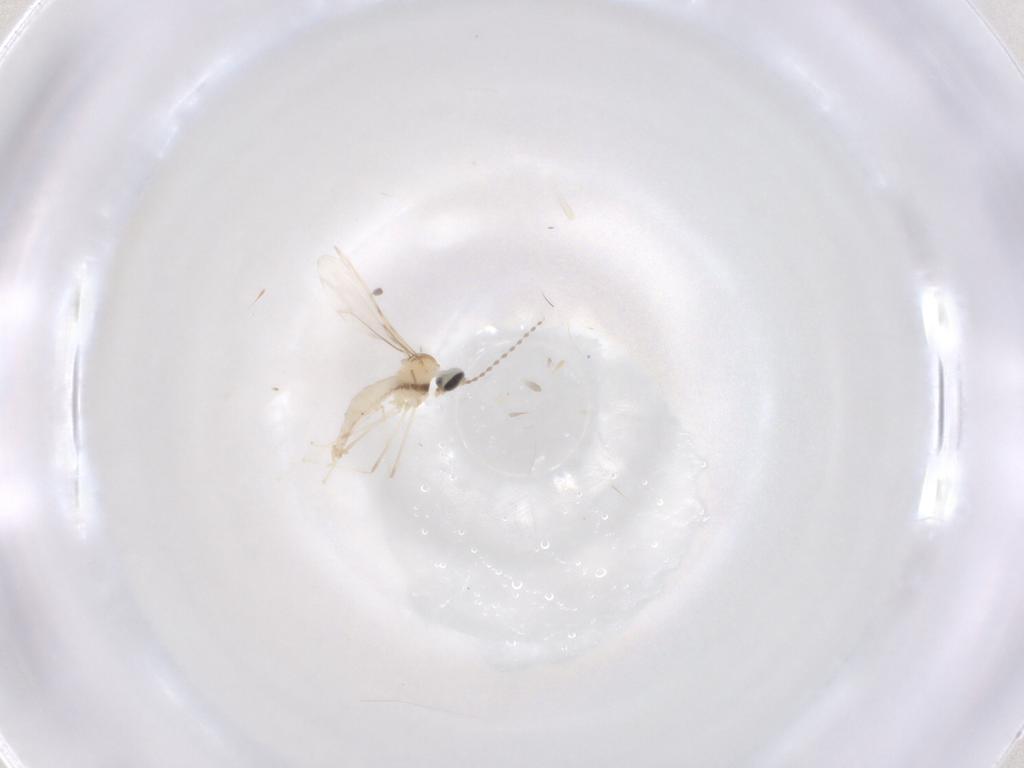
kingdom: Animalia
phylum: Arthropoda
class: Insecta
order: Diptera
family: Cecidomyiidae
